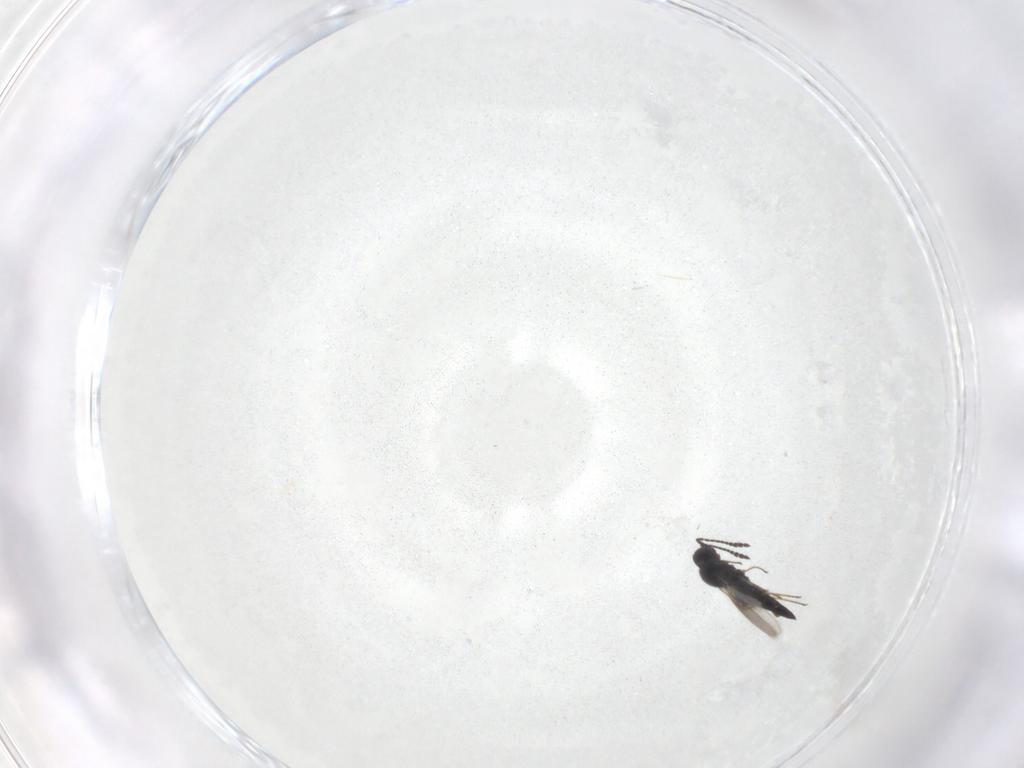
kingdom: Animalia
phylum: Arthropoda
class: Insecta
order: Hymenoptera
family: Scelionidae
